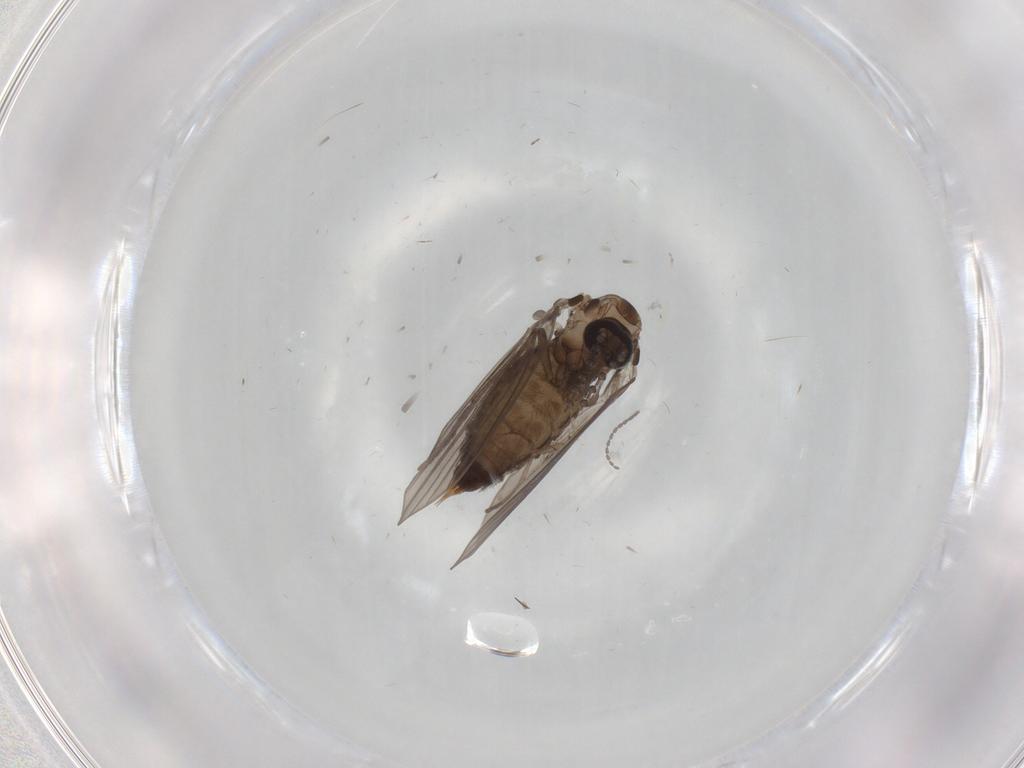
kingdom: Animalia
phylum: Arthropoda
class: Insecta
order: Diptera
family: Psychodidae
